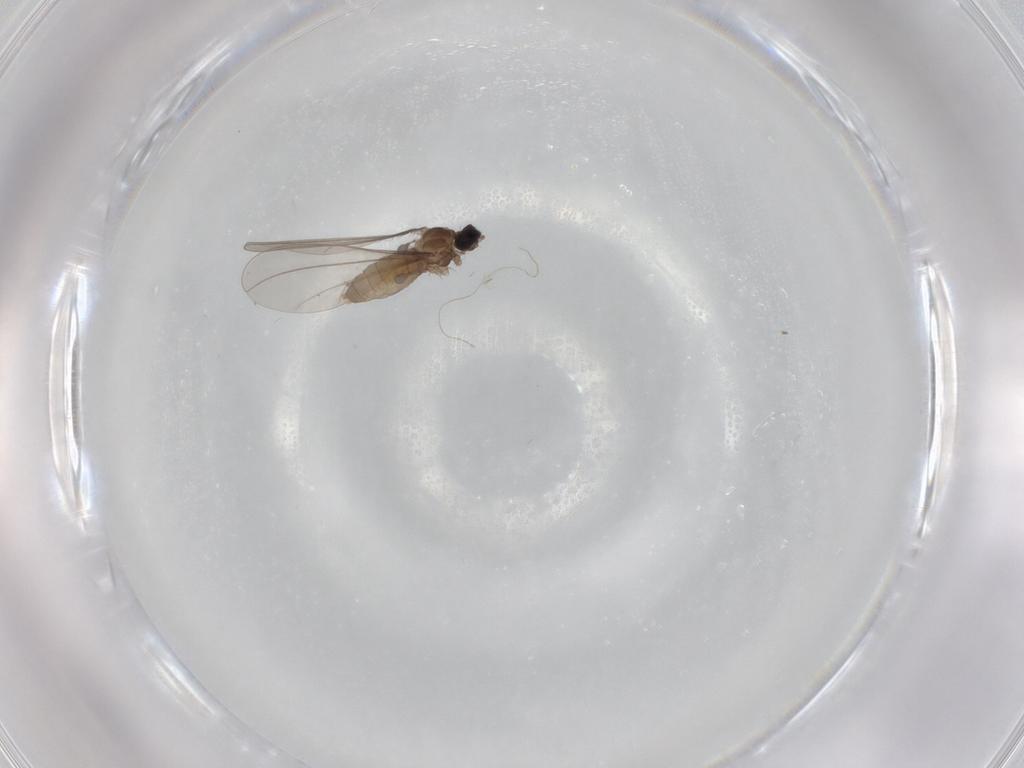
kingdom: Animalia
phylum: Arthropoda
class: Insecta
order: Diptera
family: Cecidomyiidae
